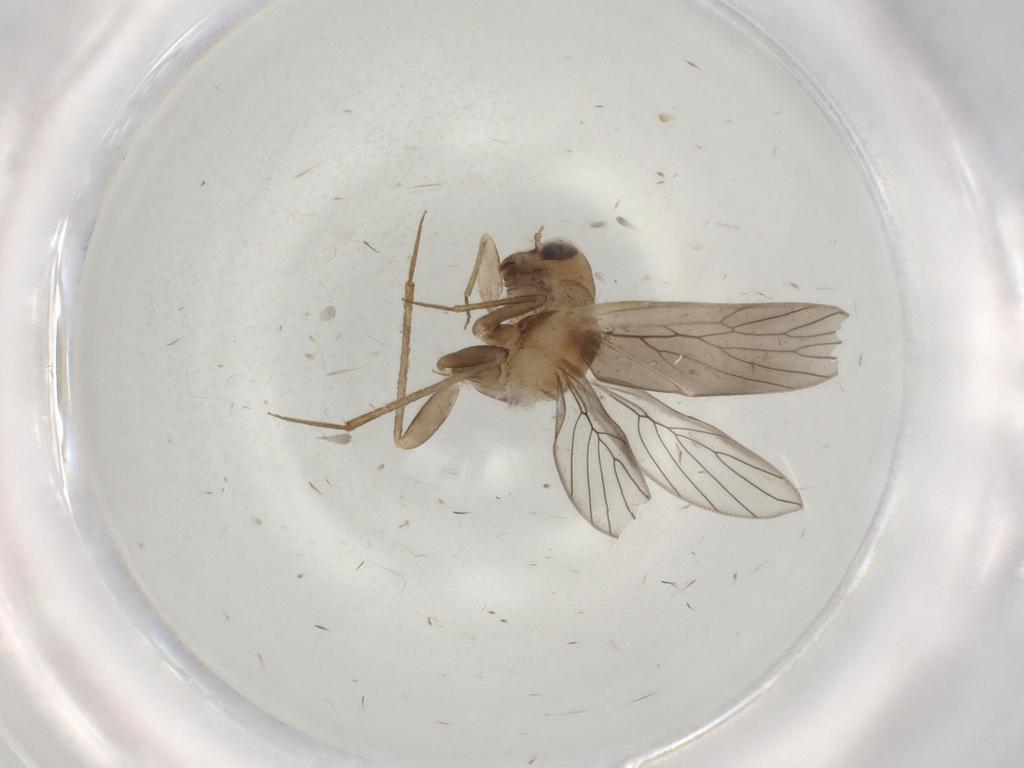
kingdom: Animalia
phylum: Arthropoda
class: Insecta
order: Psocodea
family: Lepidopsocidae
